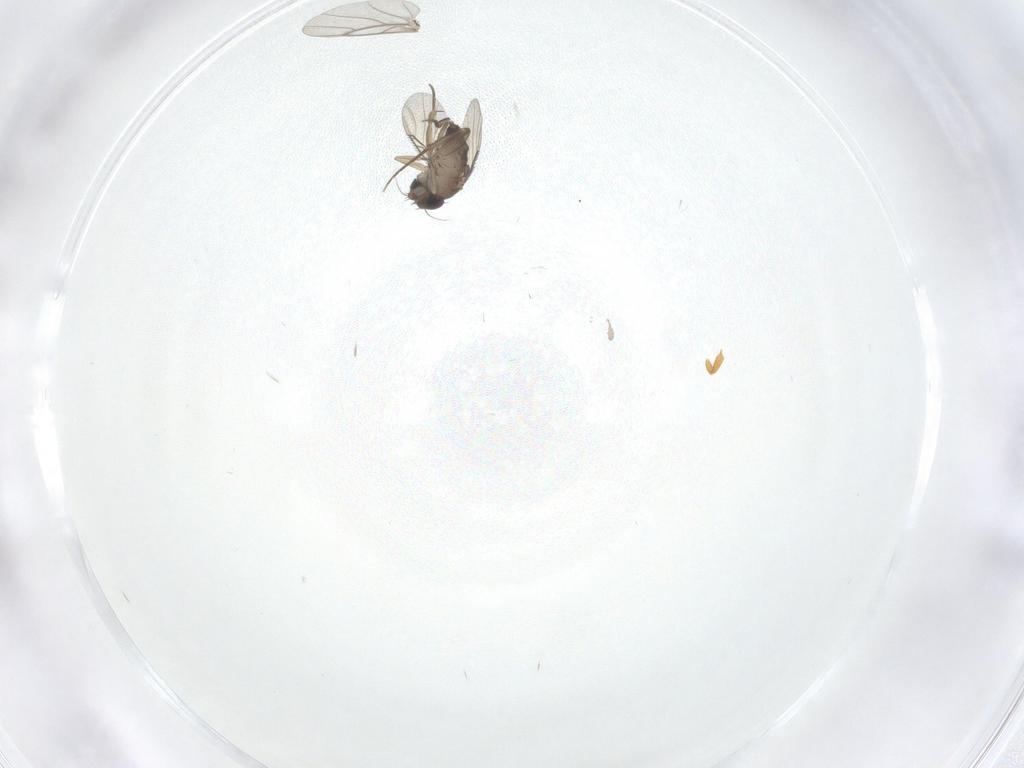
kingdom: Animalia
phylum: Arthropoda
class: Insecta
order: Diptera
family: Phoridae
